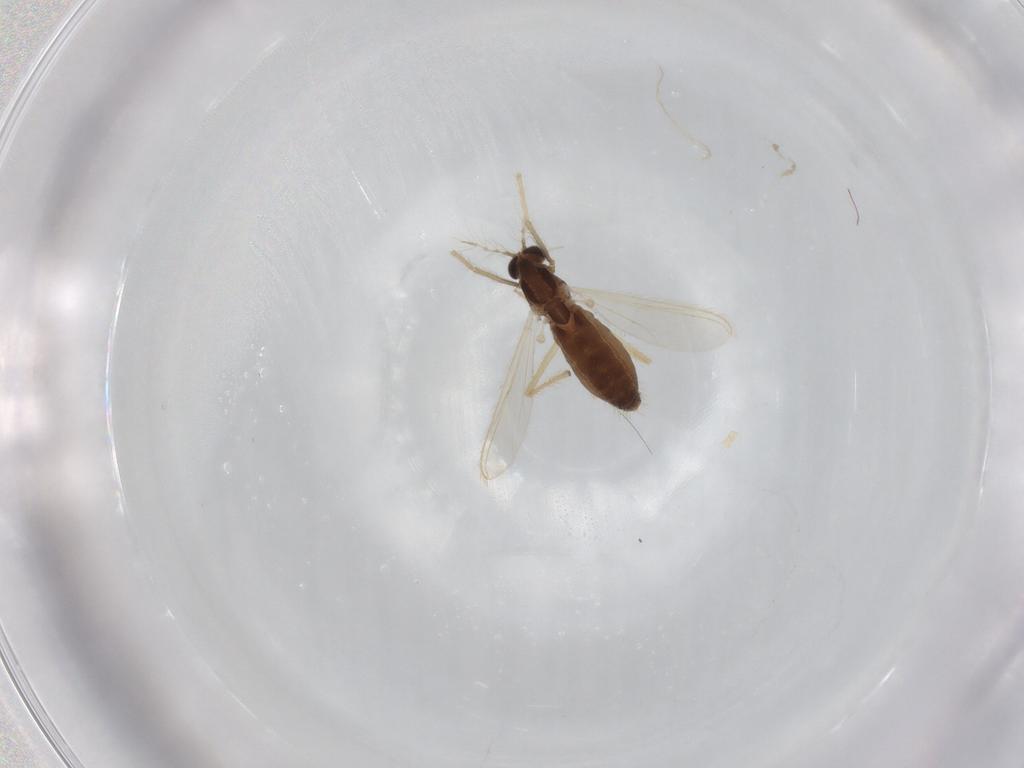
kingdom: Animalia
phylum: Arthropoda
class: Insecta
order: Diptera
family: Chironomidae
